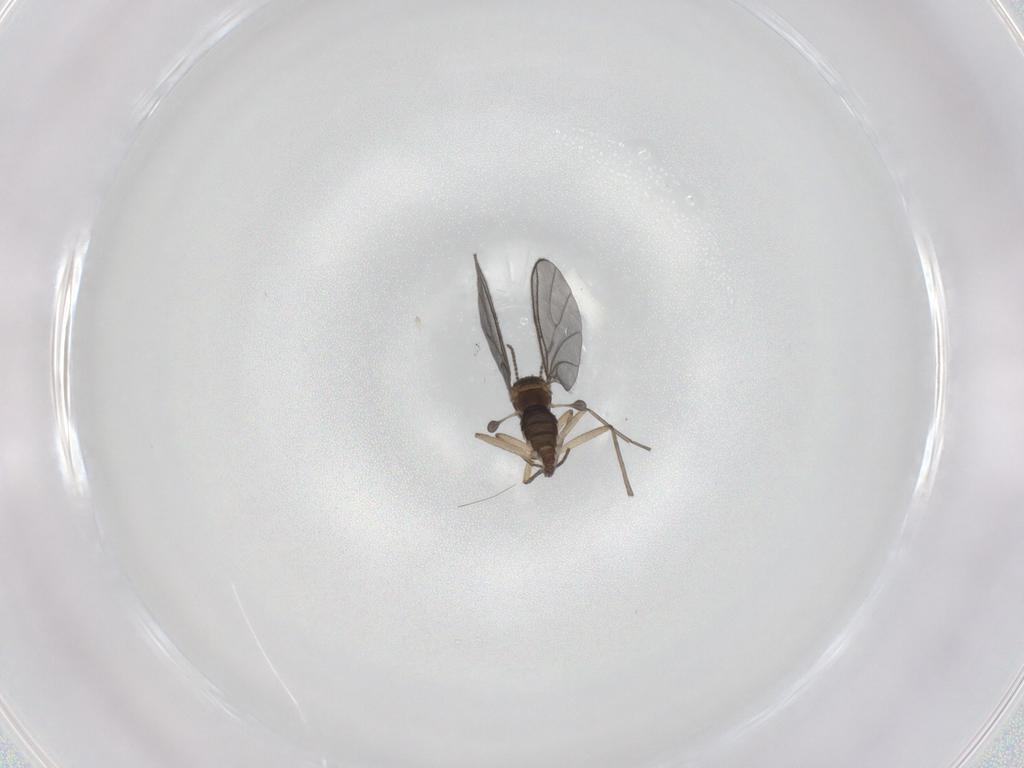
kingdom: Animalia
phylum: Arthropoda
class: Insecta
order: Diptera
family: Sciaridae
